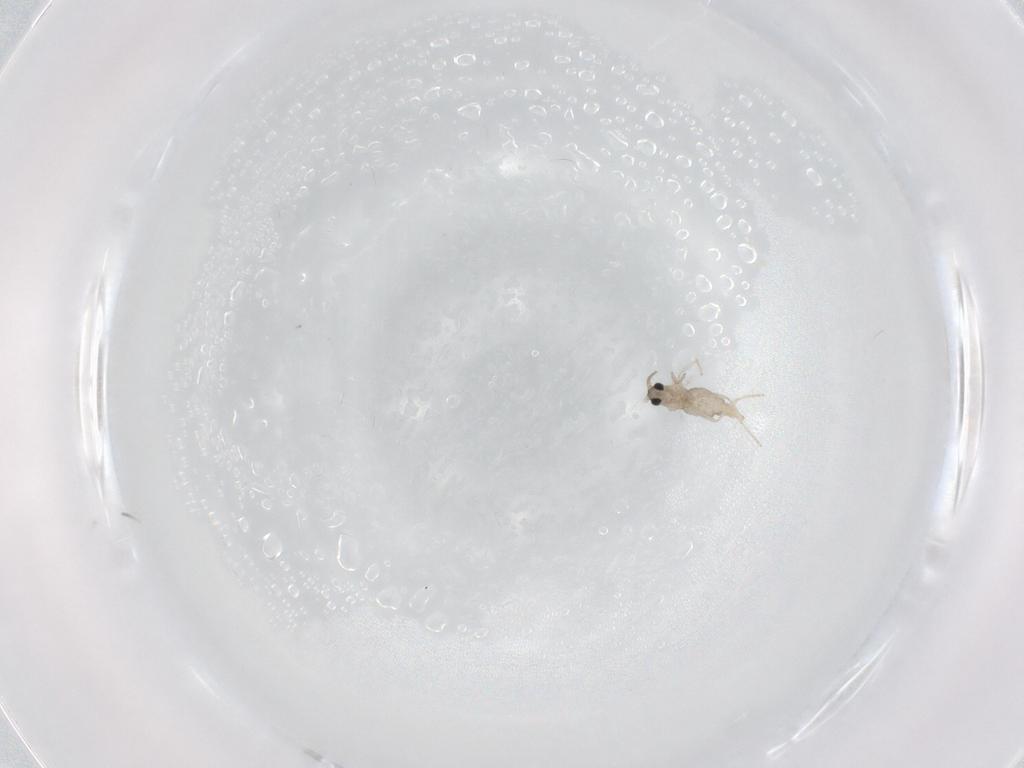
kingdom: Animalia
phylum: Arthropoda
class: Insecta
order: Diptera
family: Cecidomyiidae
